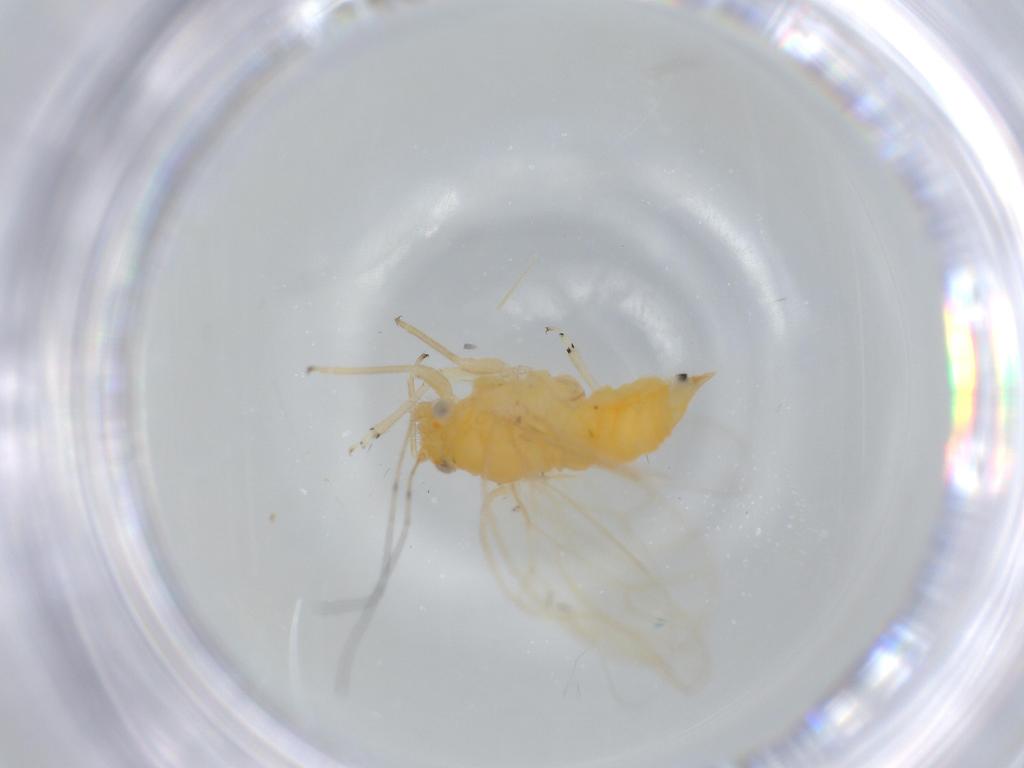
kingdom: Animalia
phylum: Arthropoda
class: Insecta
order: Hemiptera
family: Psyllidae
